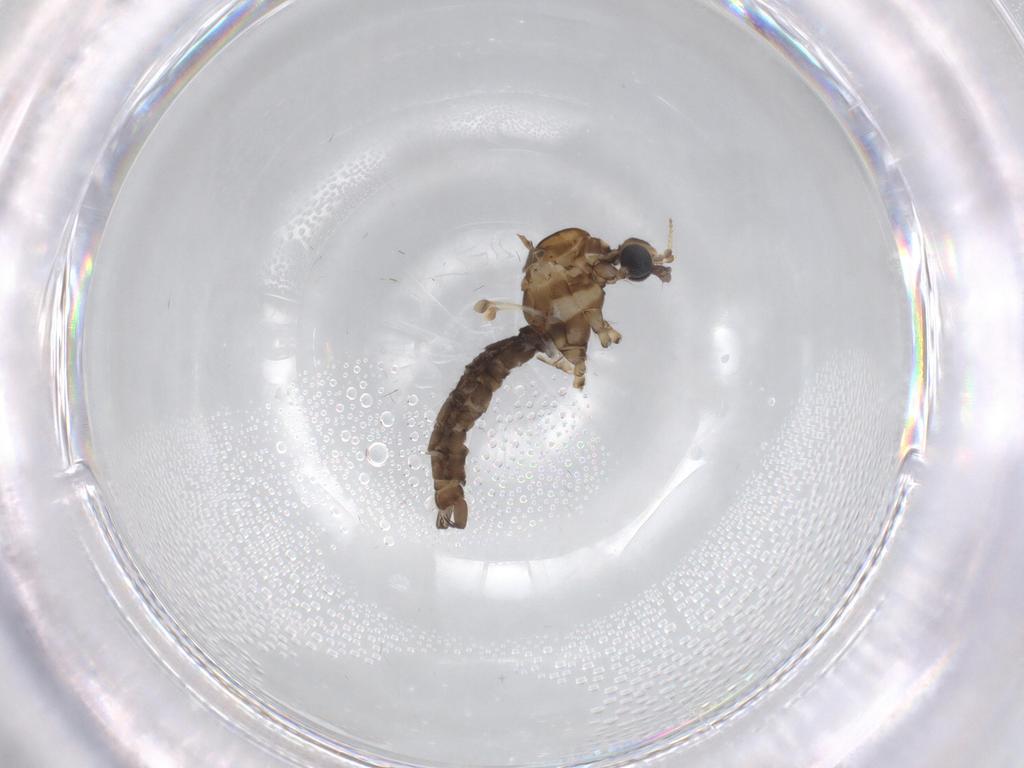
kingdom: Animalia
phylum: Arthropoda
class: Insecta
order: Diptera
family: Limoniidae
